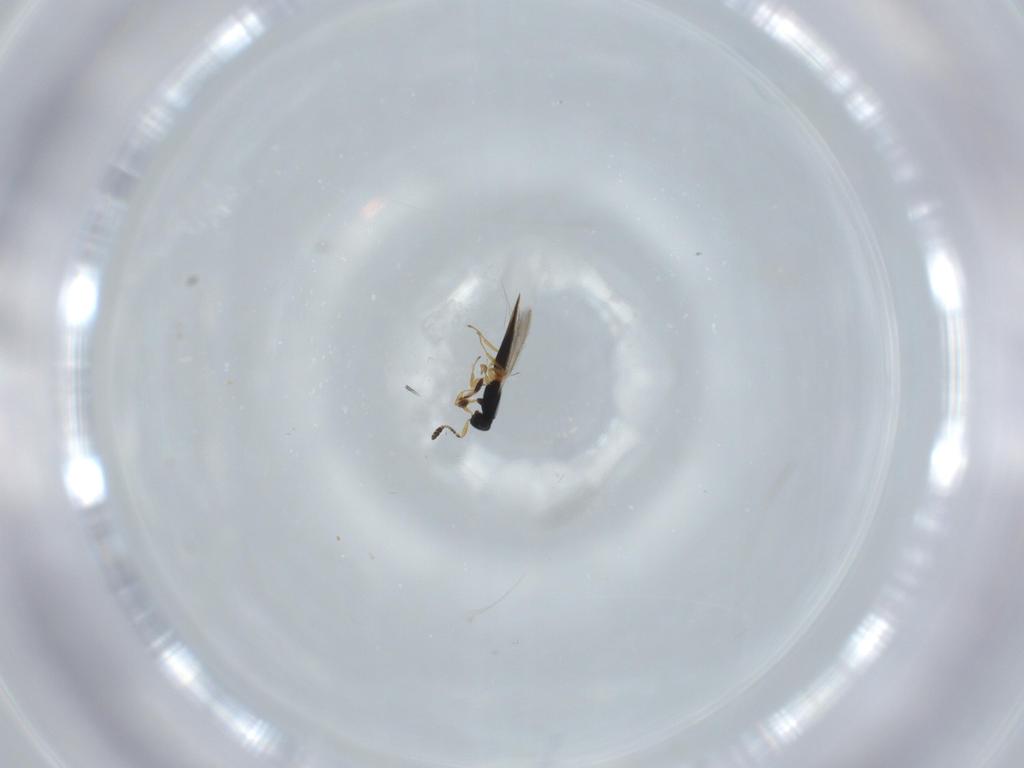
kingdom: Animalia
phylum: Arthropoda
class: Insecta
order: Hymenoptera
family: Scelionidae
